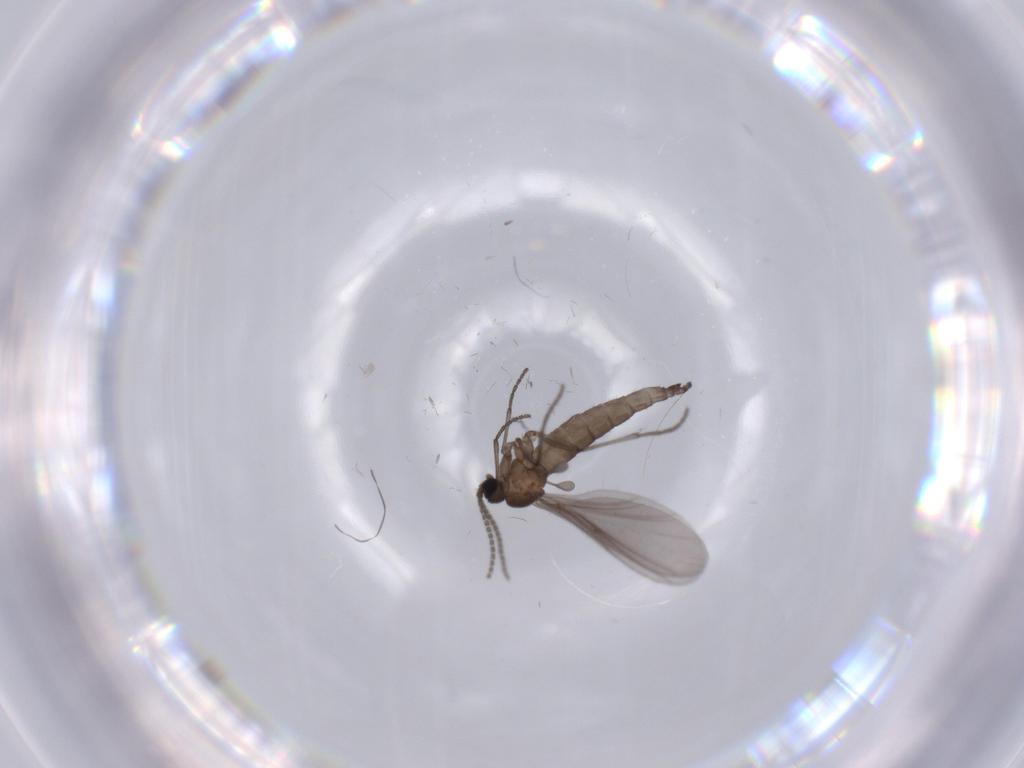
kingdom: Animalia
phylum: Arthropoda
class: Insecta
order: Diptera
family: Sciaridae
